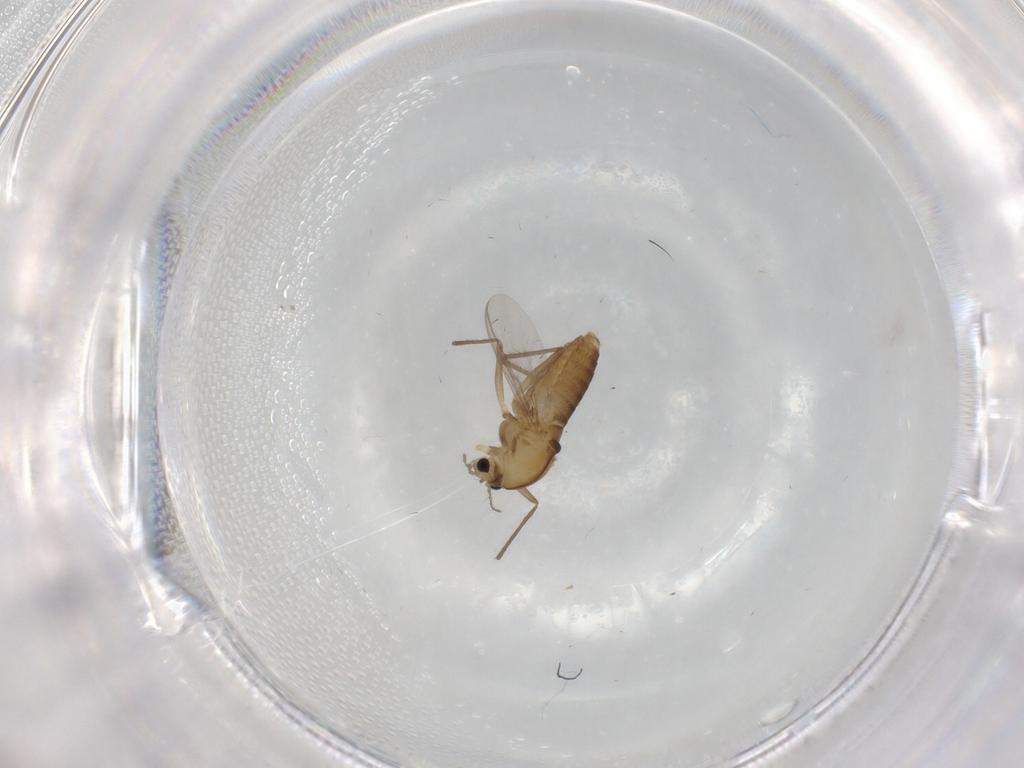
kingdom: Animalia
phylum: Arthropoda
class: Insecta
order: Diptera
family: Chironomidae
